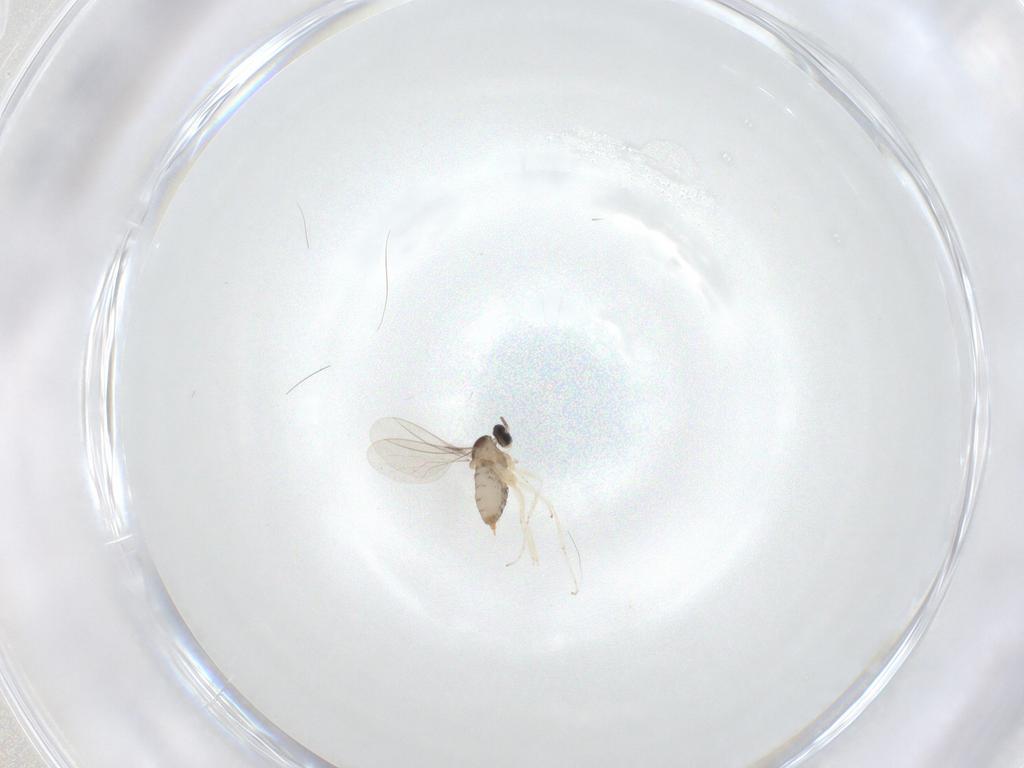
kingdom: Animalia
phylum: Arthropoda
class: Insecta
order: Diptera
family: Cecidomyiidae
